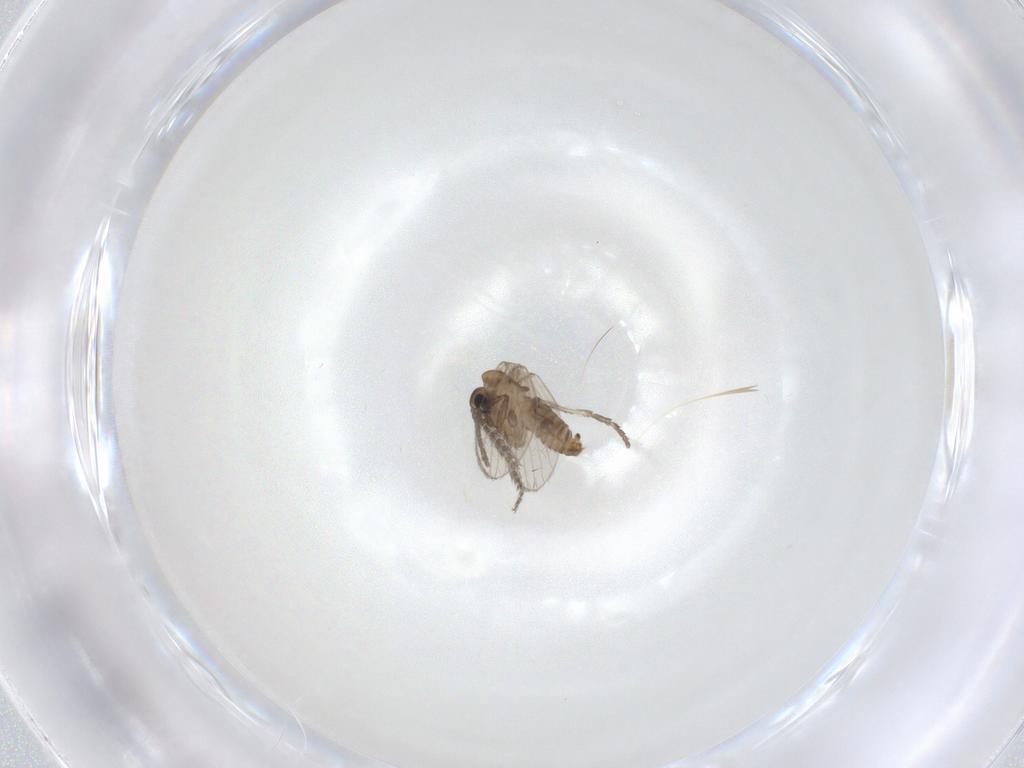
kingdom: Animalia
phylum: Arthropoda
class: Insecta
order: Diptera
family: Psychodidae
